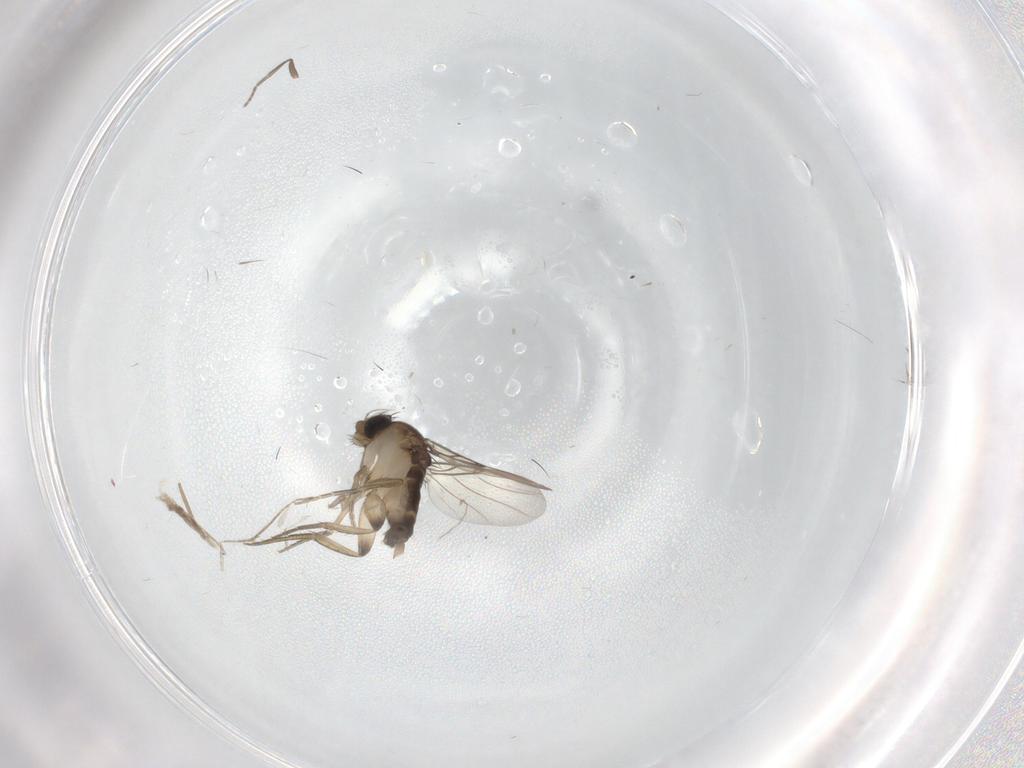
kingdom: Animalia
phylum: Arthropoda
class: Insecta
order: Diptera
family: Phoridae
